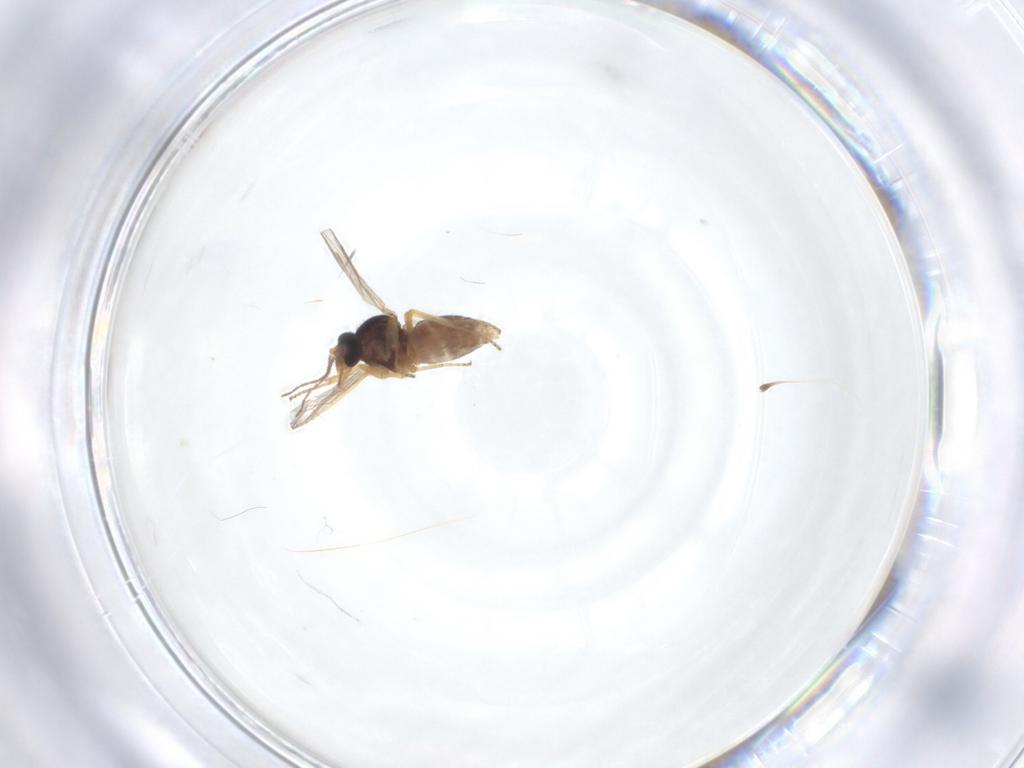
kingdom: Animalia
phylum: Arthropoda
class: Insecta
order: Diptera
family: Ceratopogonidae
